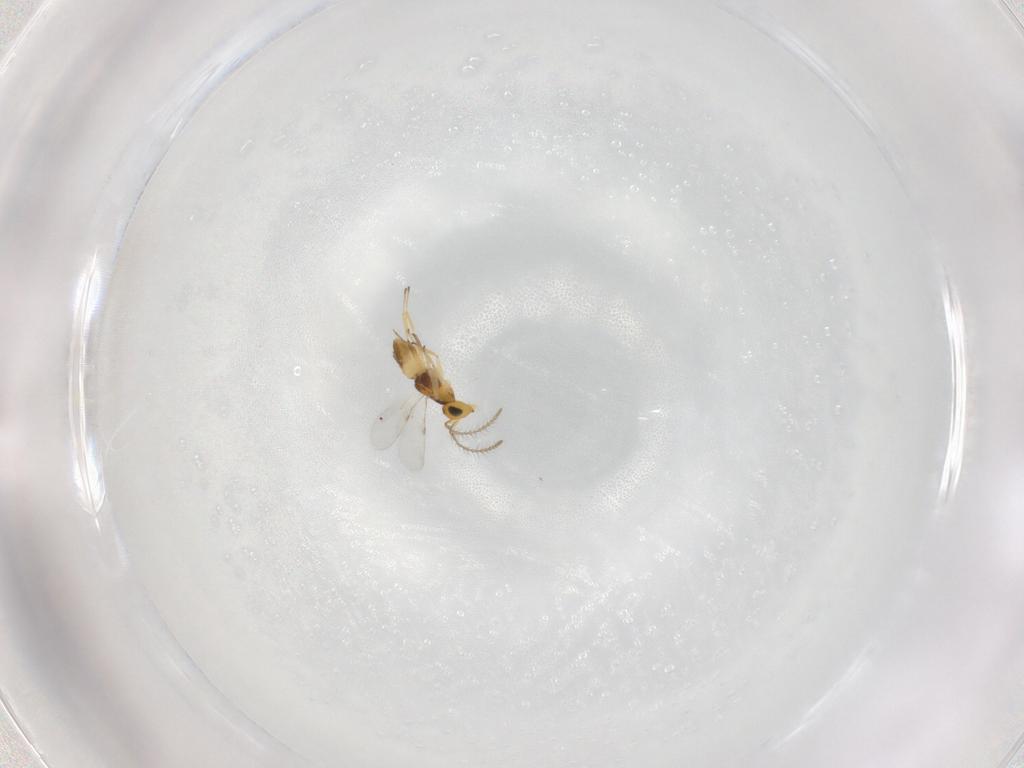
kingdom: Animalia
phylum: Arthropoda
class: Insecta
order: Hymenoptera
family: Crabronidae
